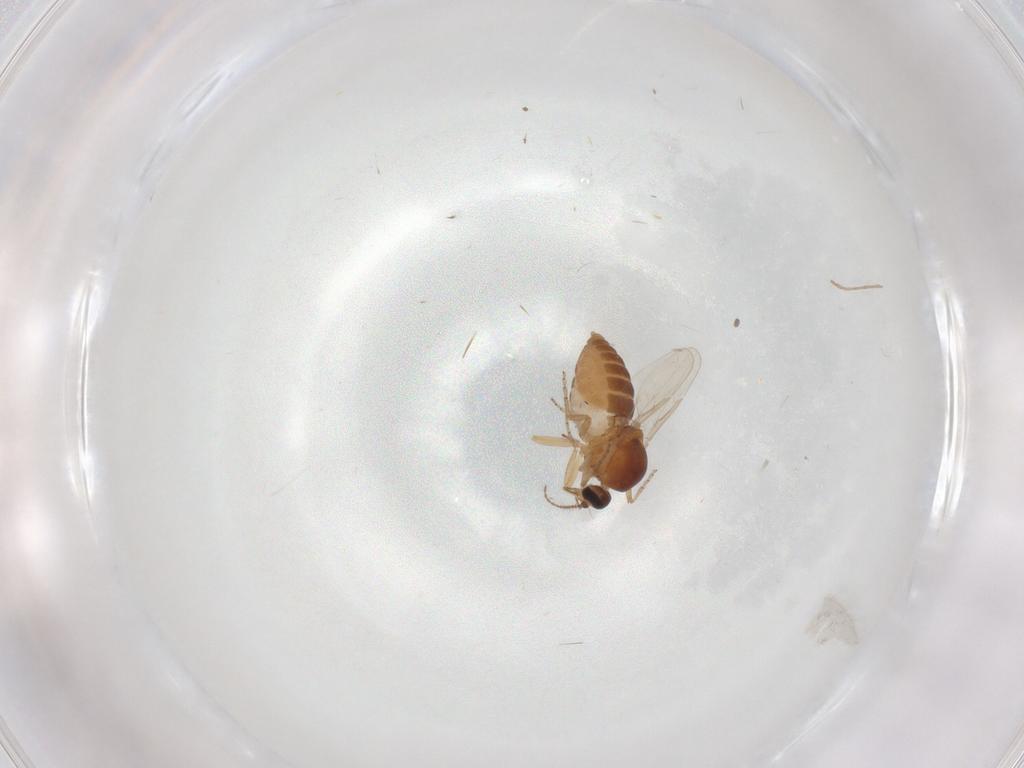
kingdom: Animalia
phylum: Arthropoda
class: Insecta
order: Diptera
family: Ceratopogonidae
